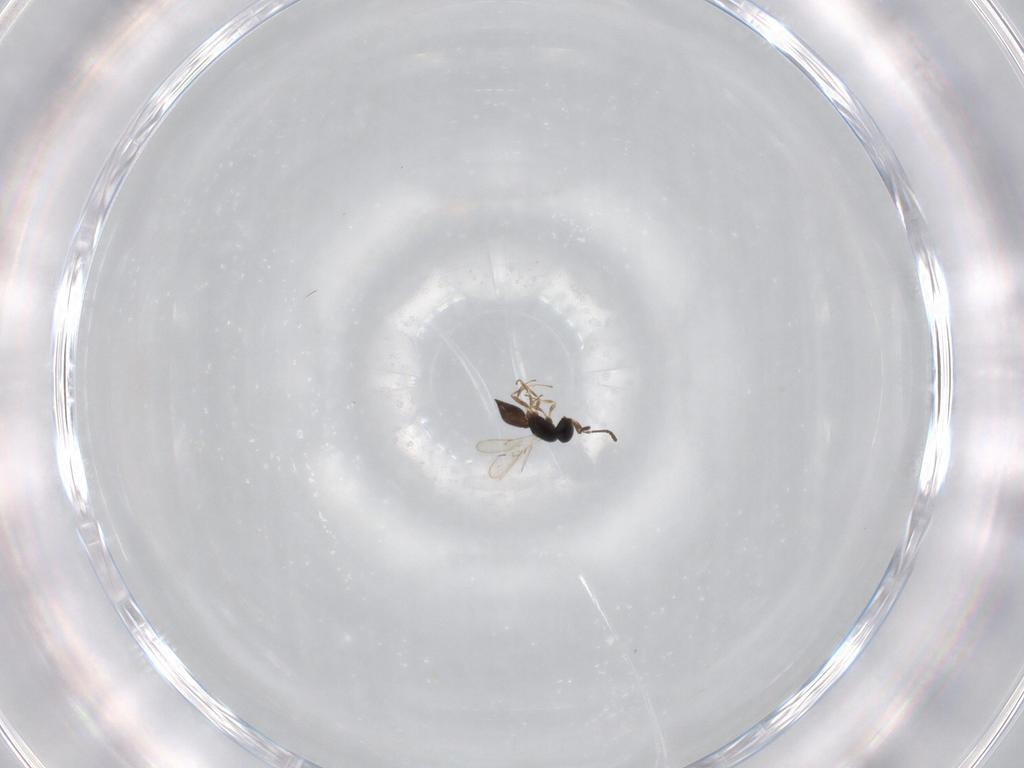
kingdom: Animalia
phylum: Arthropoda
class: Insecta
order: Hymenoptera
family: Scelionidae
